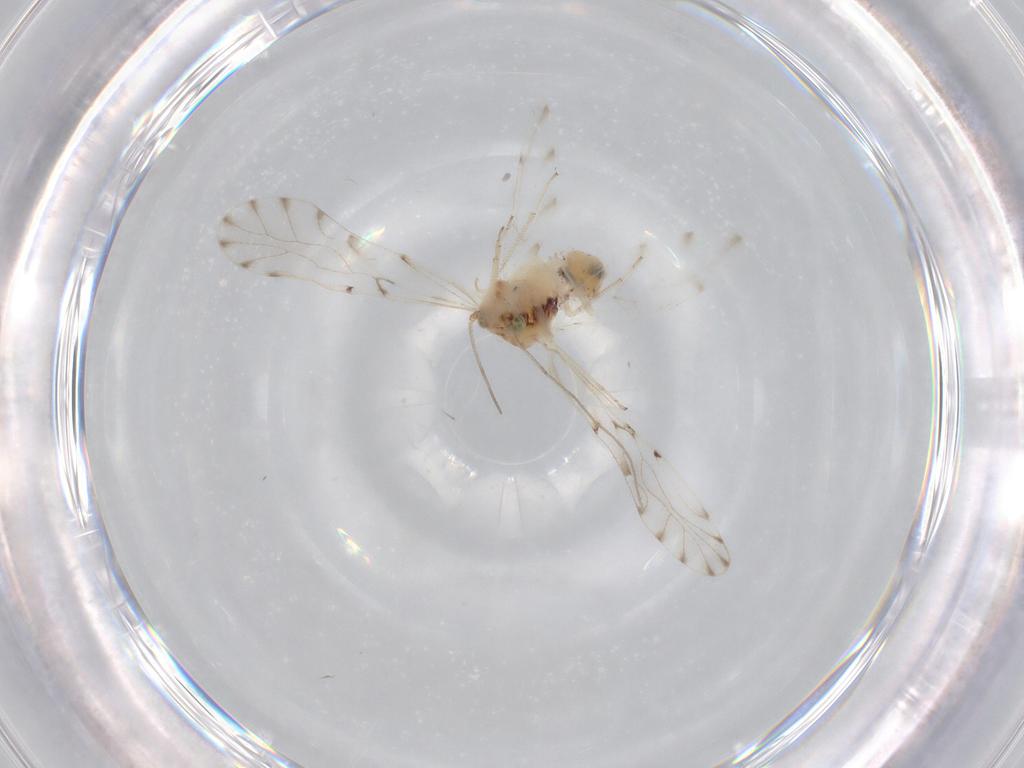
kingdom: Animalia
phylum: Arthropoda
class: Insecta
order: Psocodea
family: Ectopsocidae
